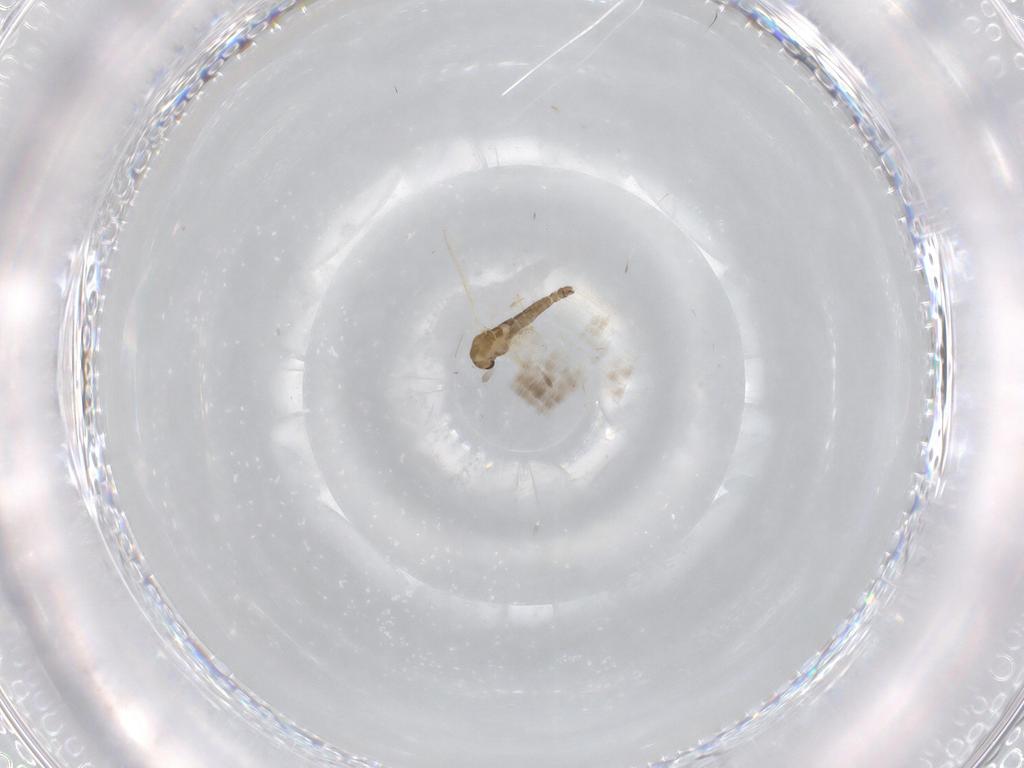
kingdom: Animalia
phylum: Arthropoda
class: Insecta
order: Diptera
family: Chironomidae
